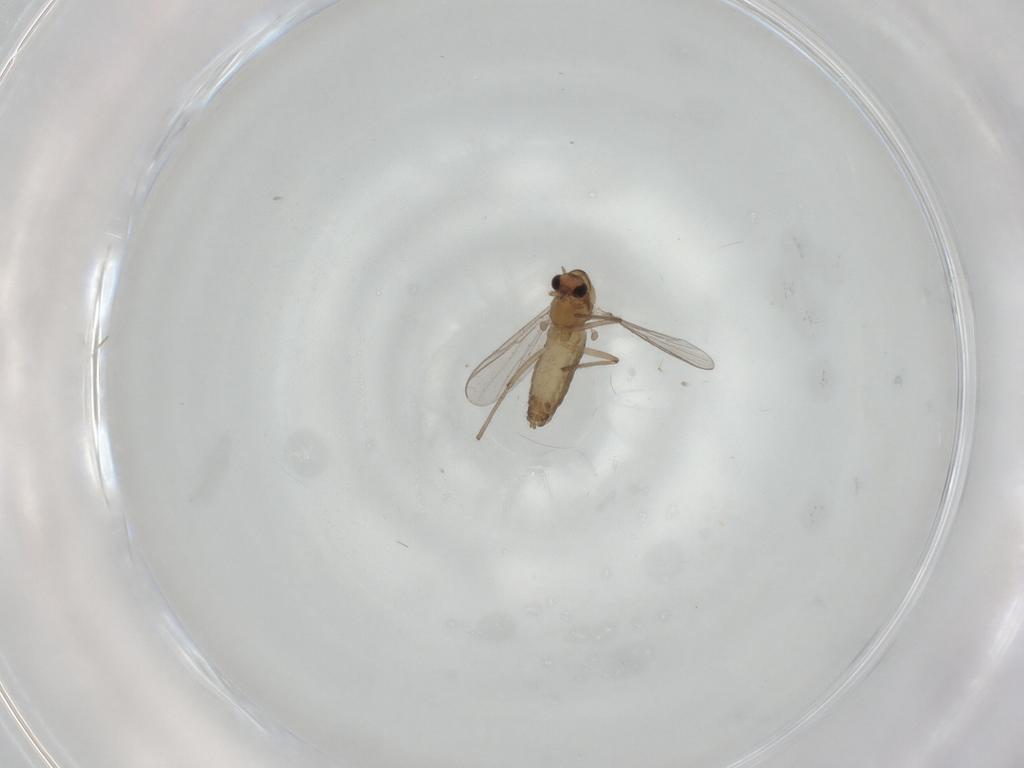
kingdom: Animalia
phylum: Arthropoda
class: Insecta
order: Diptera
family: Chironomidae
